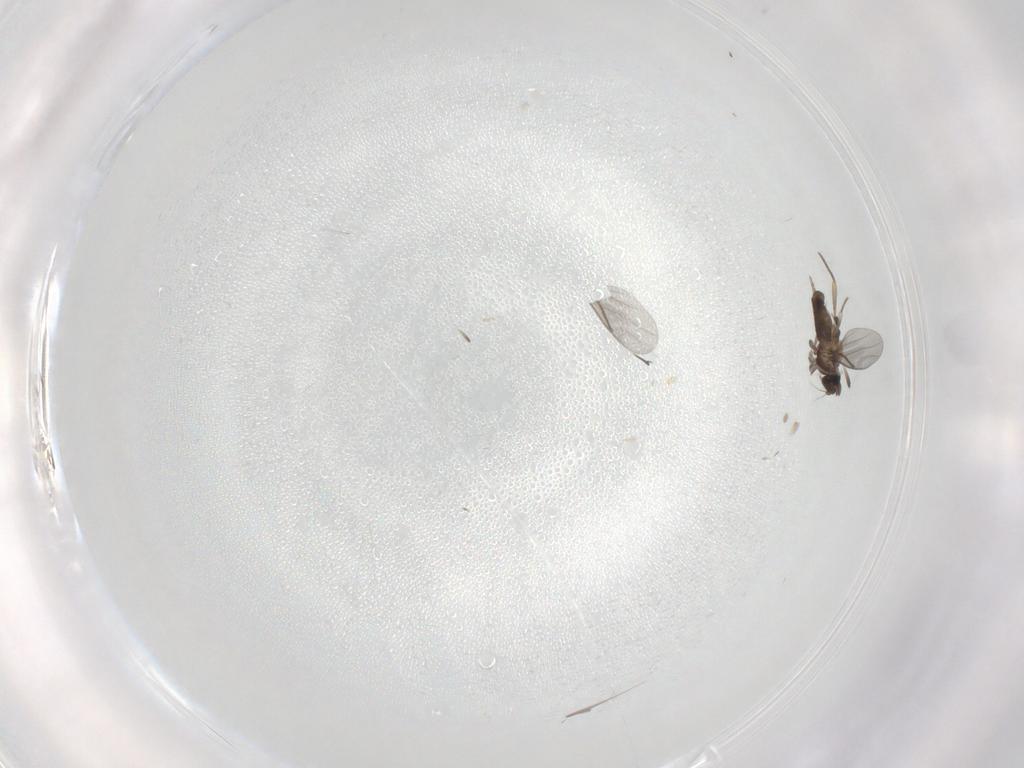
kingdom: Animalia
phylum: Arthropoda
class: Insecta
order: Diptera
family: Phoridae
